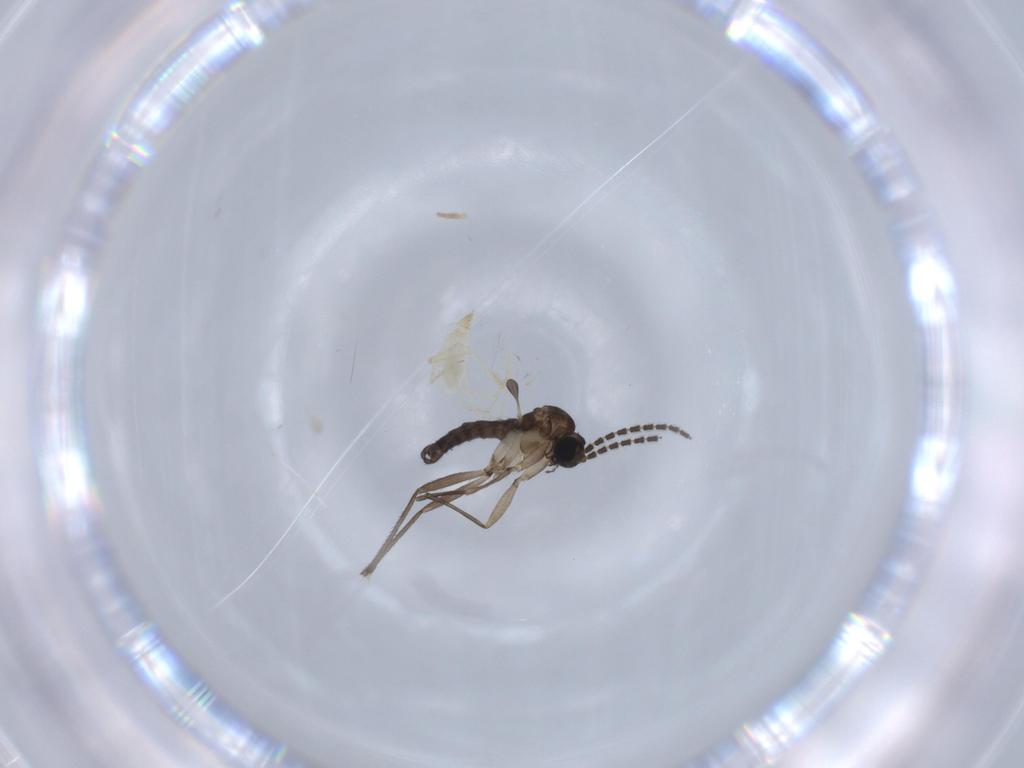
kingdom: Animalia
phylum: Arthropoda
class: Insecta
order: Diptera
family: Sciaridae
